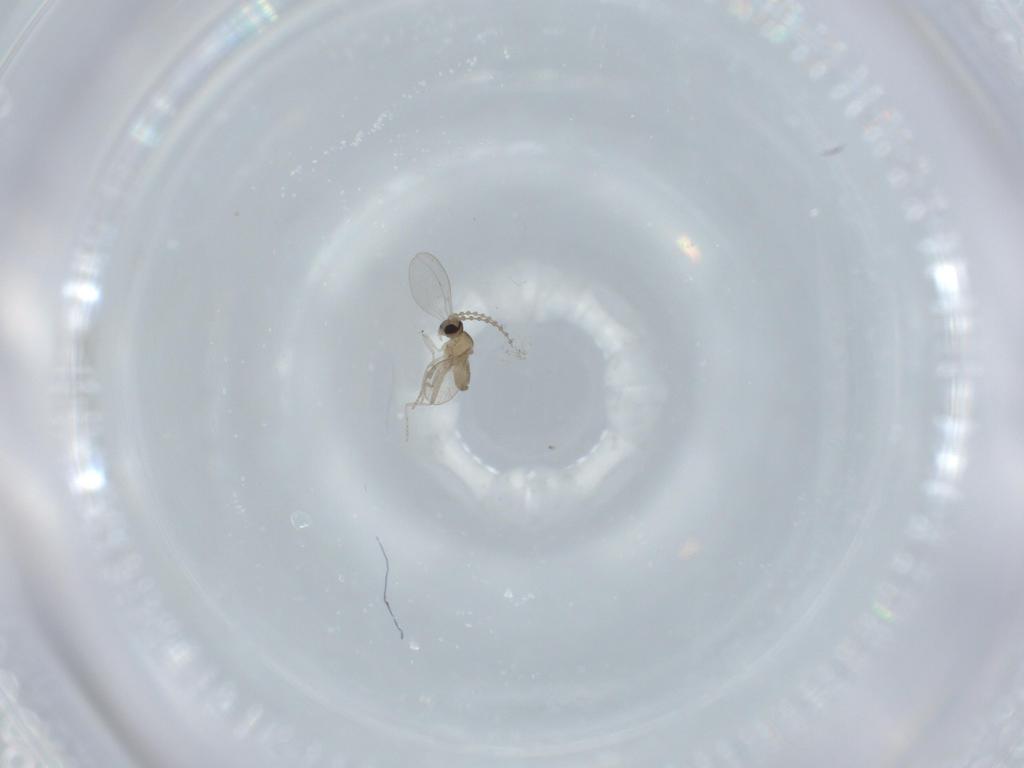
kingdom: Animalia
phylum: Arthropoda
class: Insecta
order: Diptera
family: Cecidomyiidae
